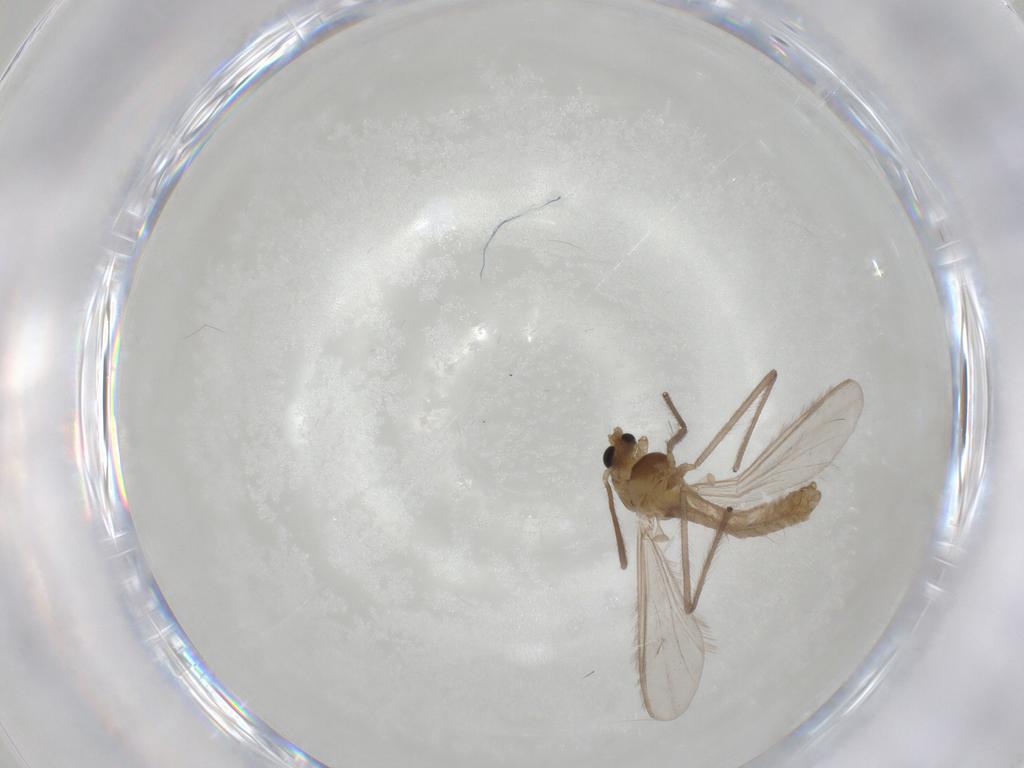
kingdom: Animalia
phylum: Arthropoda
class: Insecta
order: Diptera
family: Chironomidae
